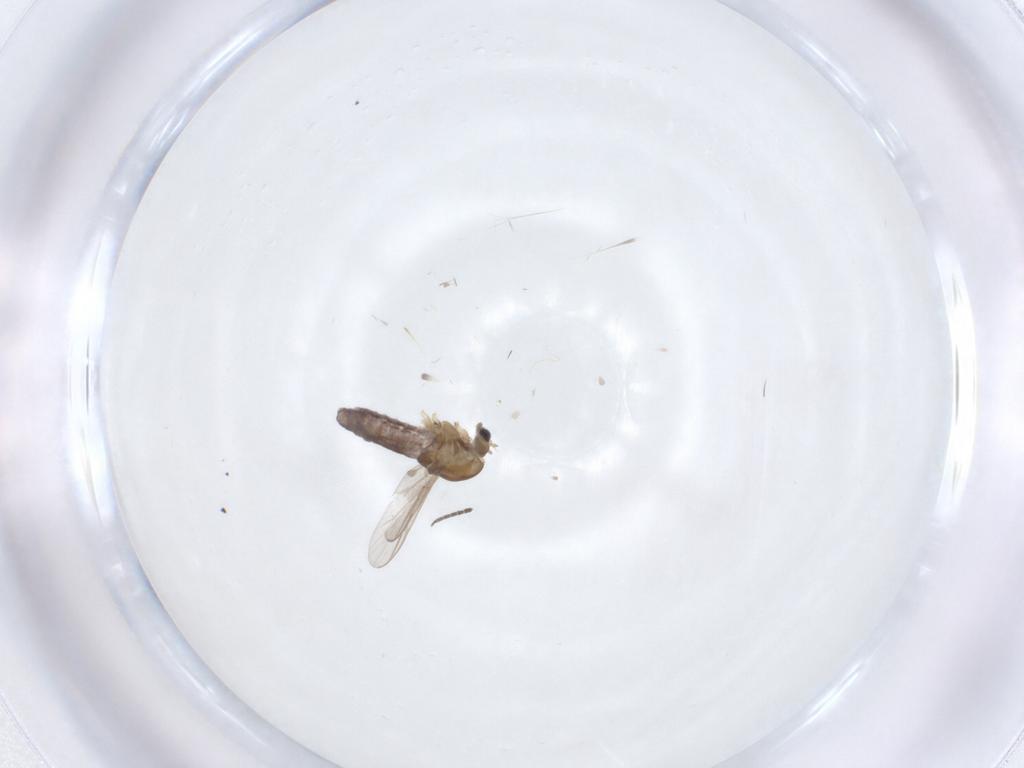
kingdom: Animalia
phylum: Arthropoda
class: Insecta
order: Diptera
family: Chironomidae
